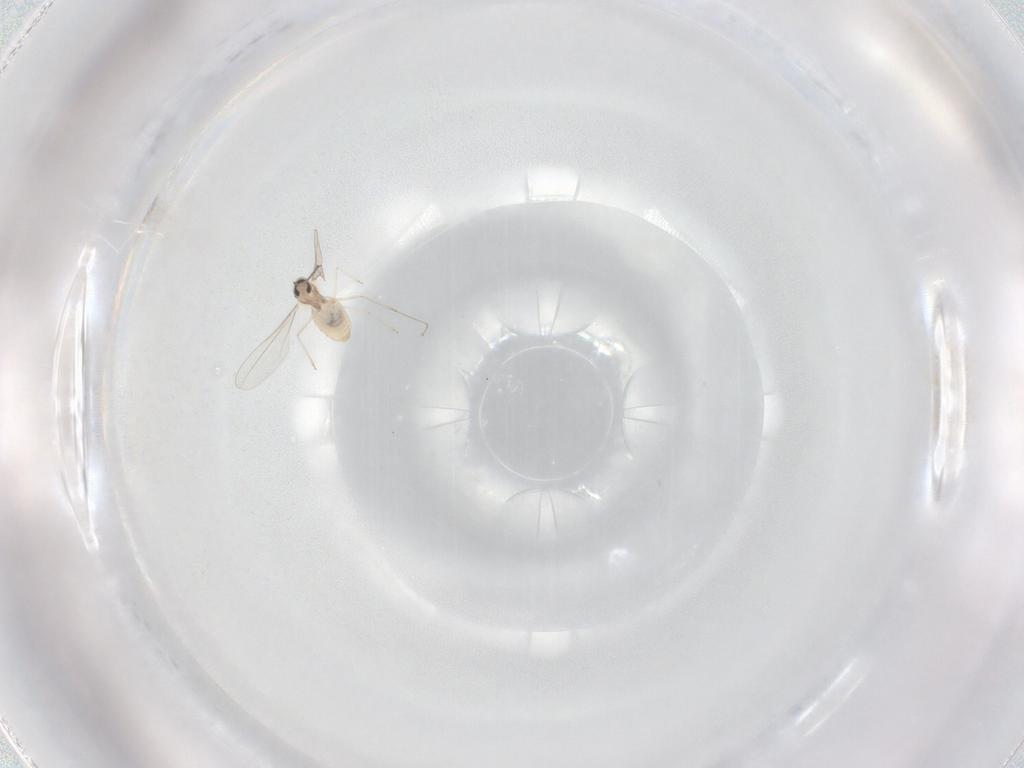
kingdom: Animalia
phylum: Arthropoda
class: Insecta
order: Diptera
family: Cecidomyiidae
